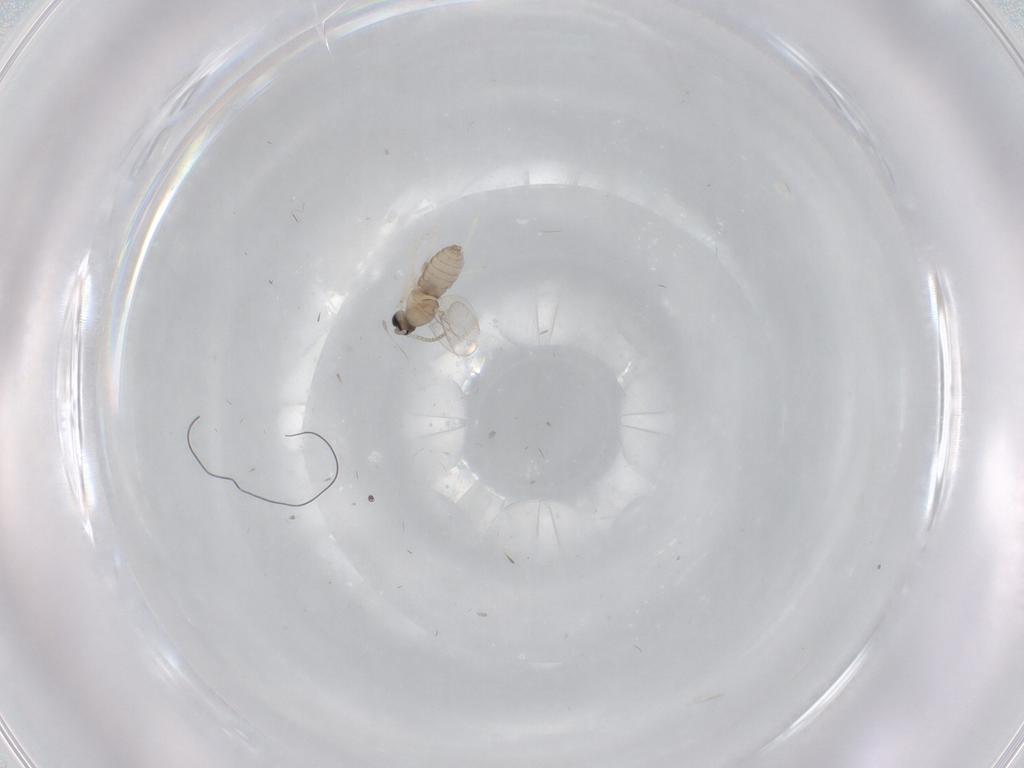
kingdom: Animalia
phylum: Arthropoda
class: Insecta
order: Diptera
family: Cecidomyiidae
